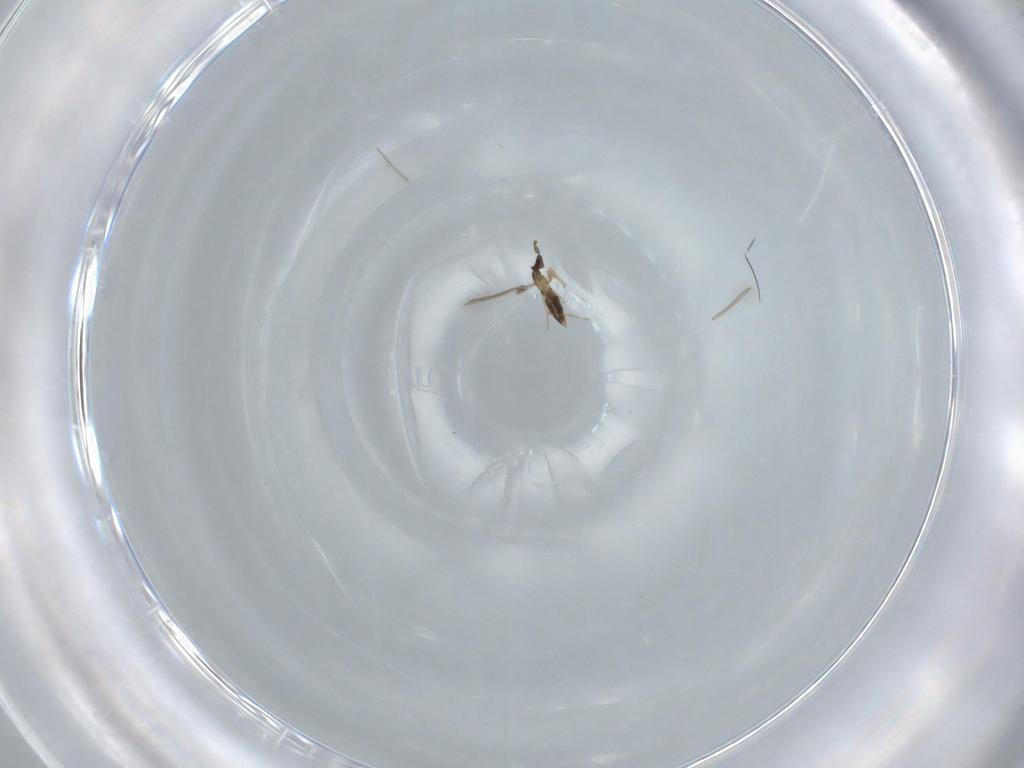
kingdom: Animalia
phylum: Arthropoda
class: Insecta
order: Hymenoptera
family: Mymaridae
